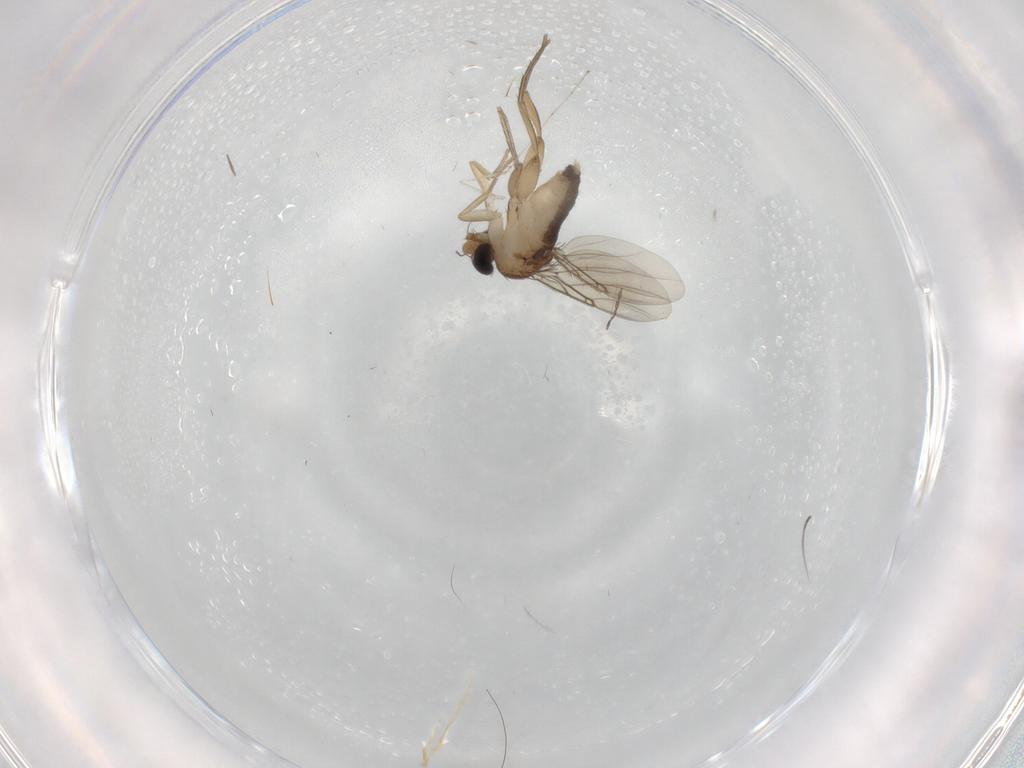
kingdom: Animalia
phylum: Arthropoda
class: Insecta
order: Diptera
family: Phoridae
